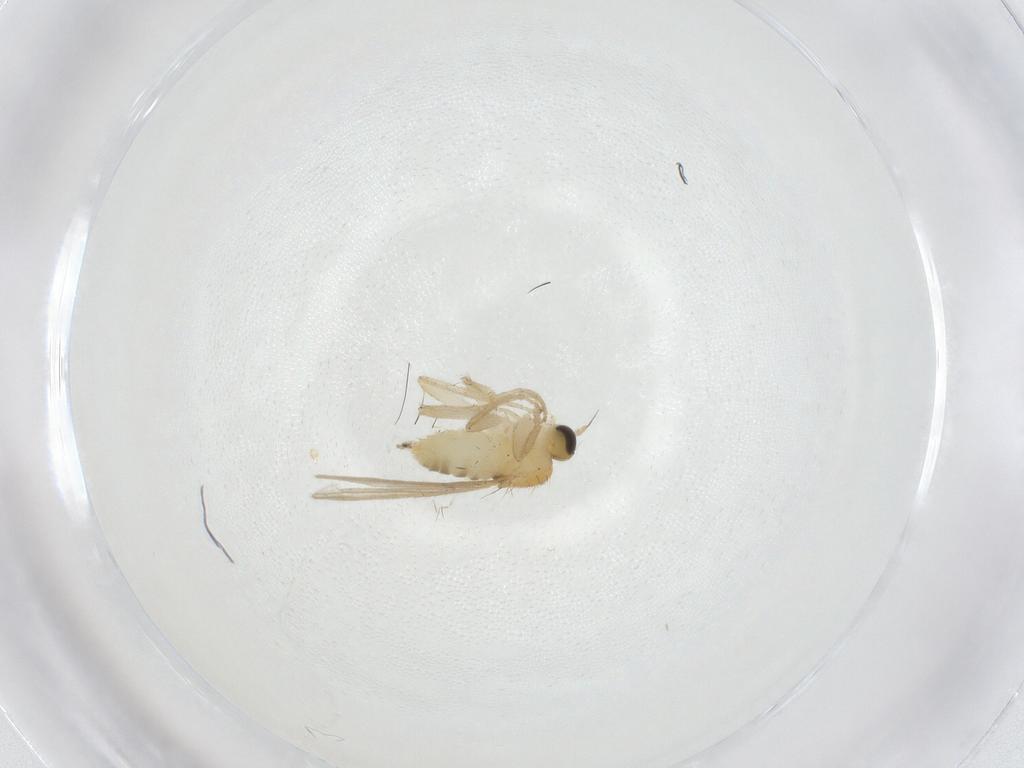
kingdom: Animalia
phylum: Arthropoda
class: Insecta
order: Diptera
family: Hybotidae
